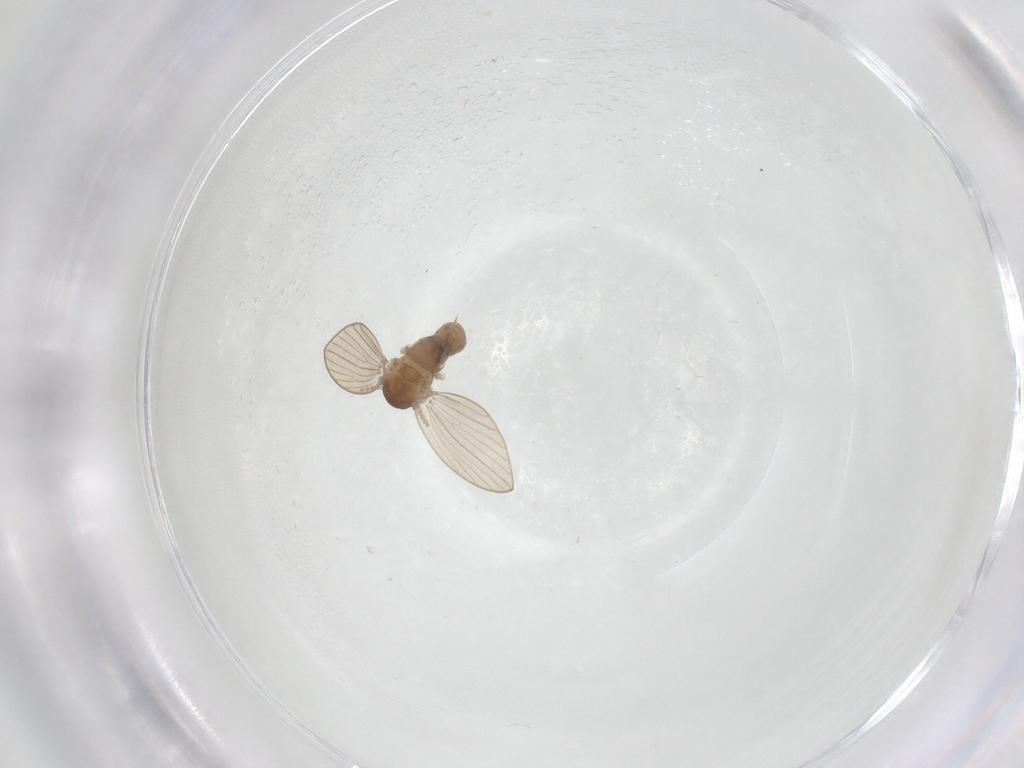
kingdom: Animalia
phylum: Arthropoda
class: Insecta
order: Diptera
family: Psychodidae
